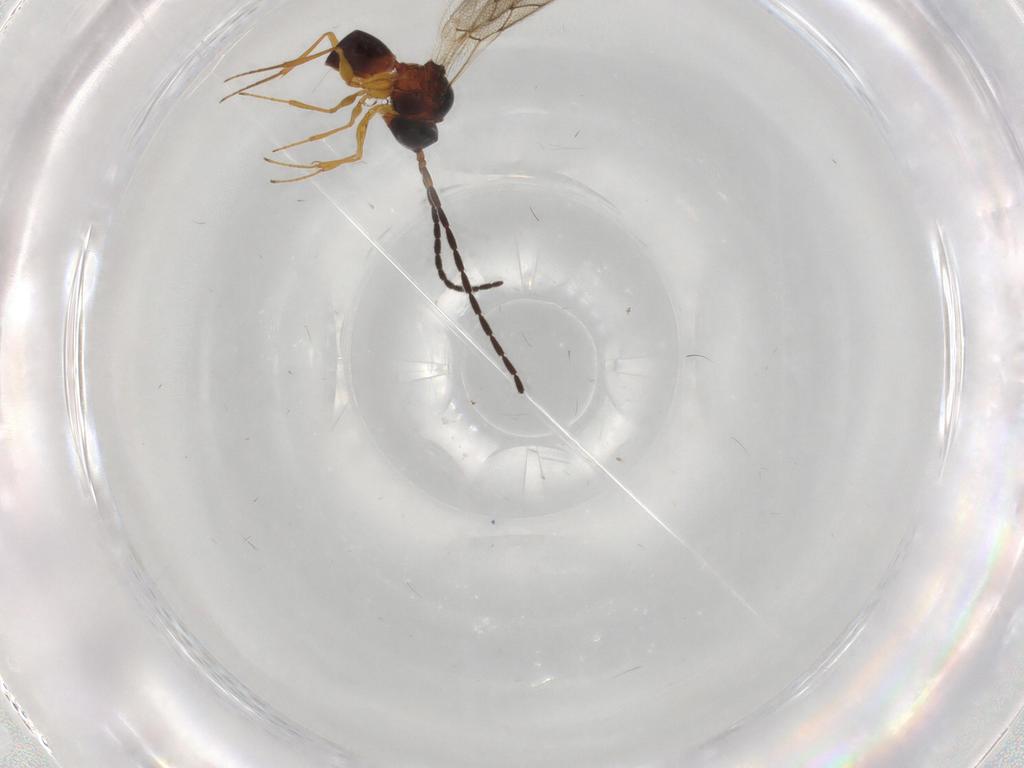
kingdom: Animalia
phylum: Arthropoda
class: Insecta
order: Hymenoptera
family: Figitidae
